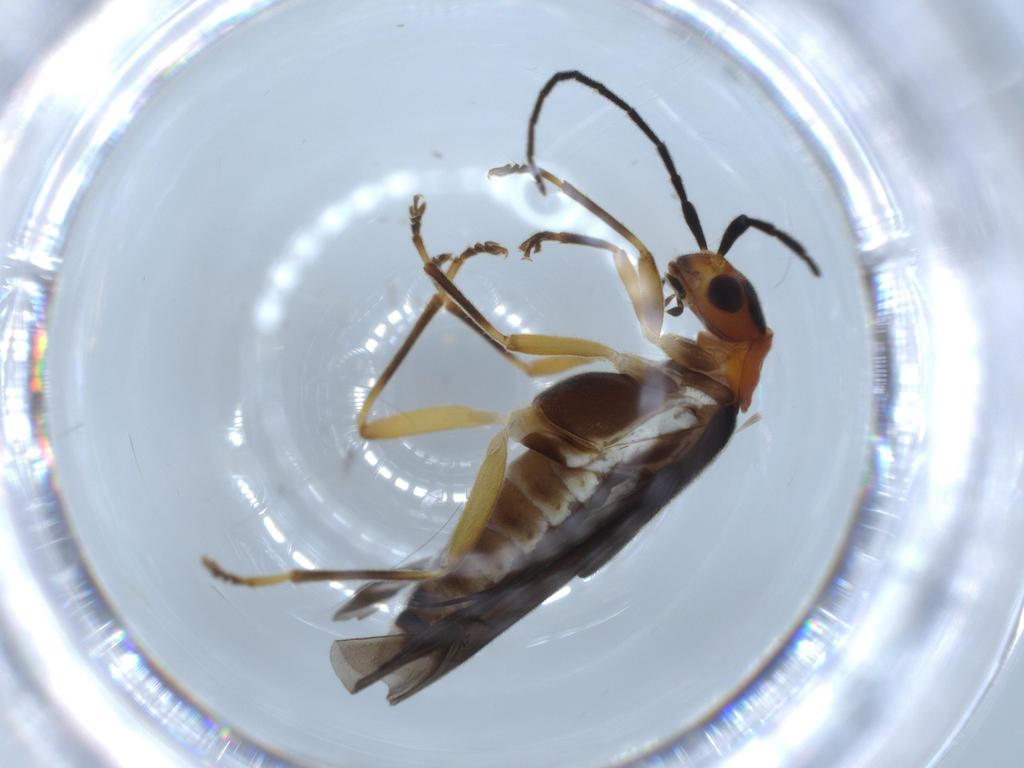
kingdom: Animalia
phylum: Arthropoda
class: Insecta
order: Coleoptera
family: Cantharidae
